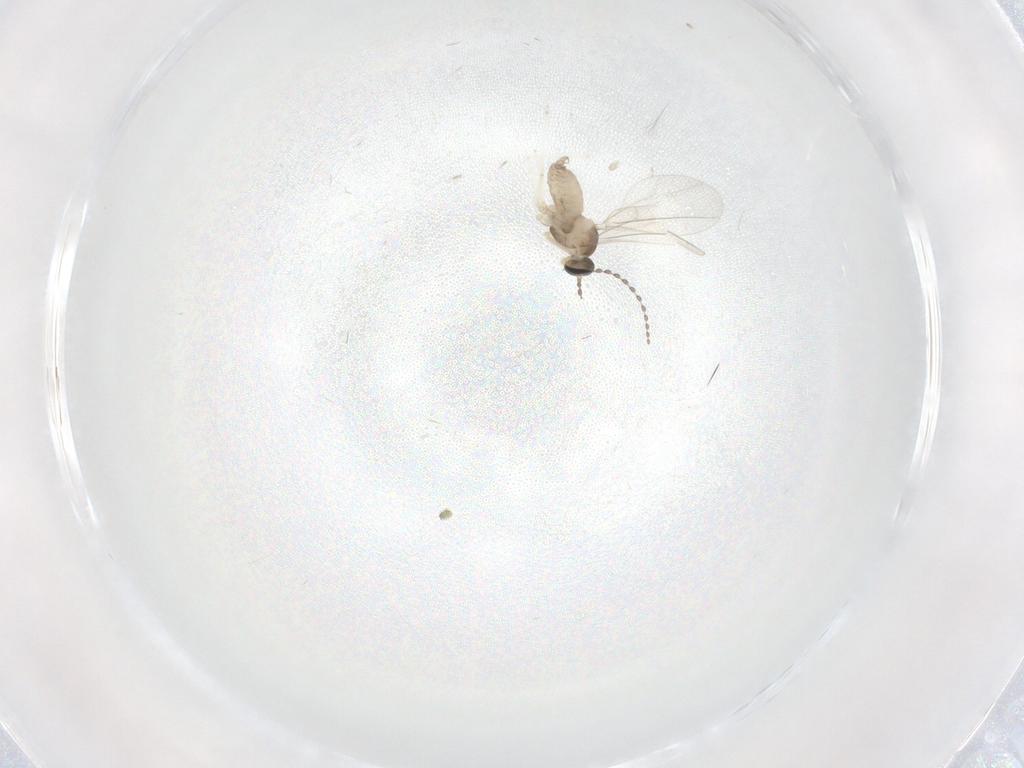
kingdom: Animalia
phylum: Arthropoda
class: Insecta
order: Diptera
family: Cecidomyiidae
